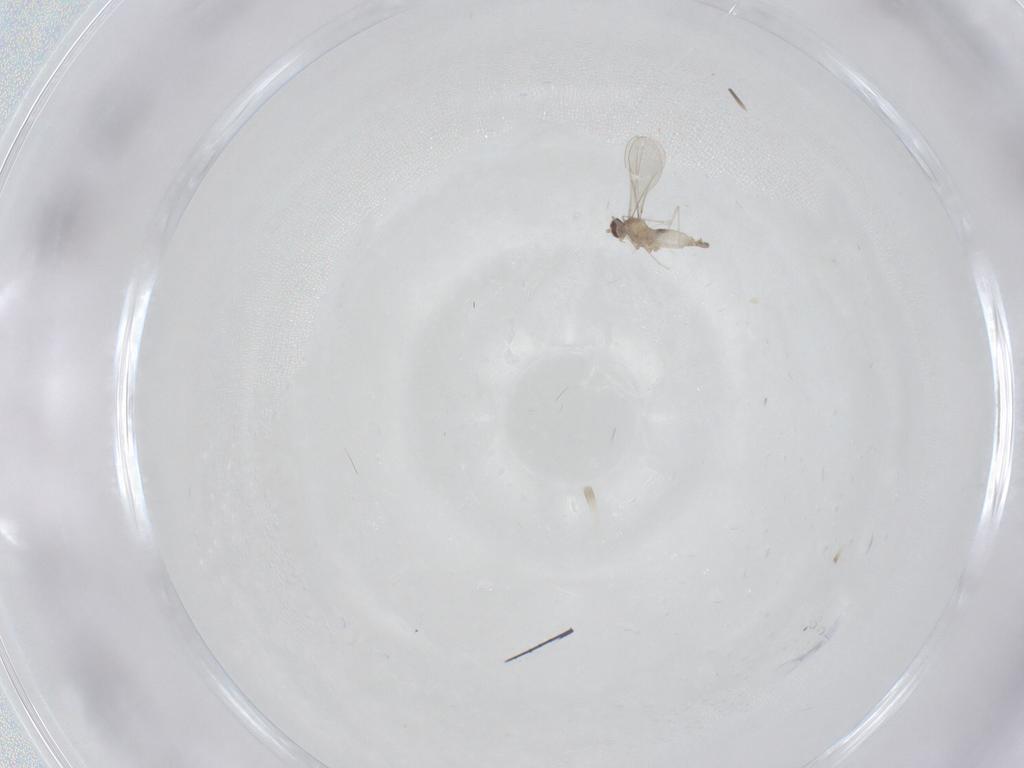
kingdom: Animalia
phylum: Arthropoda
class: Insecta
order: Diptera
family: Cecidomyiidae
